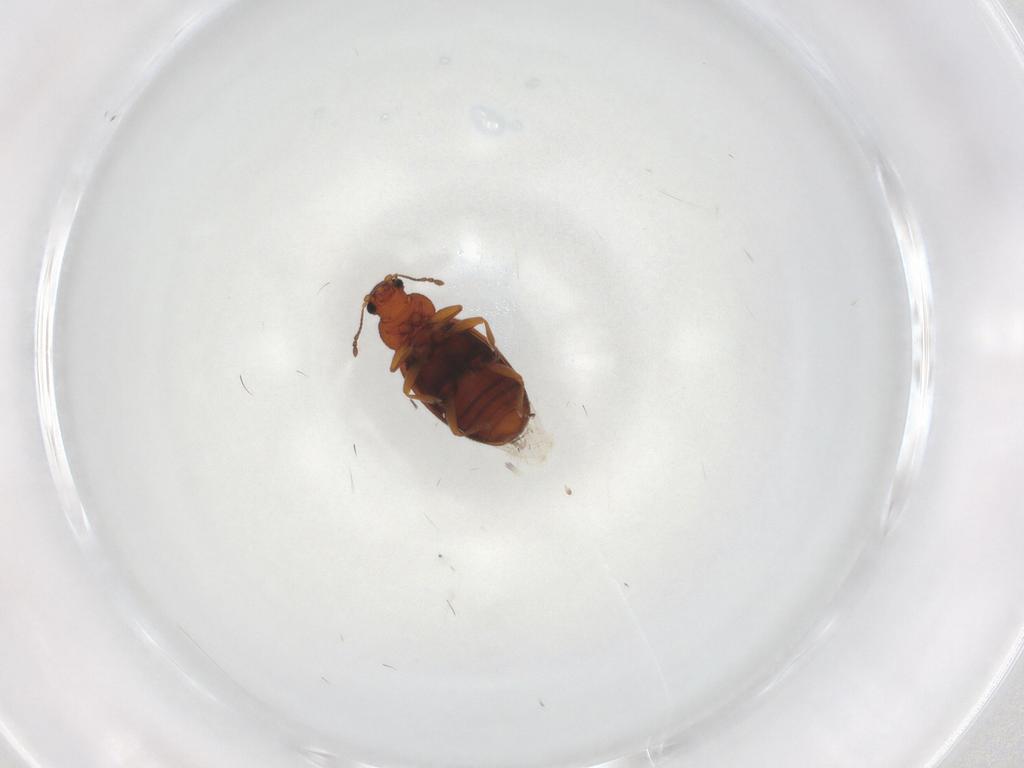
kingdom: Animalia
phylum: Arthropoda
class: Insecta
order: Coleoptera
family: Latridiidae
